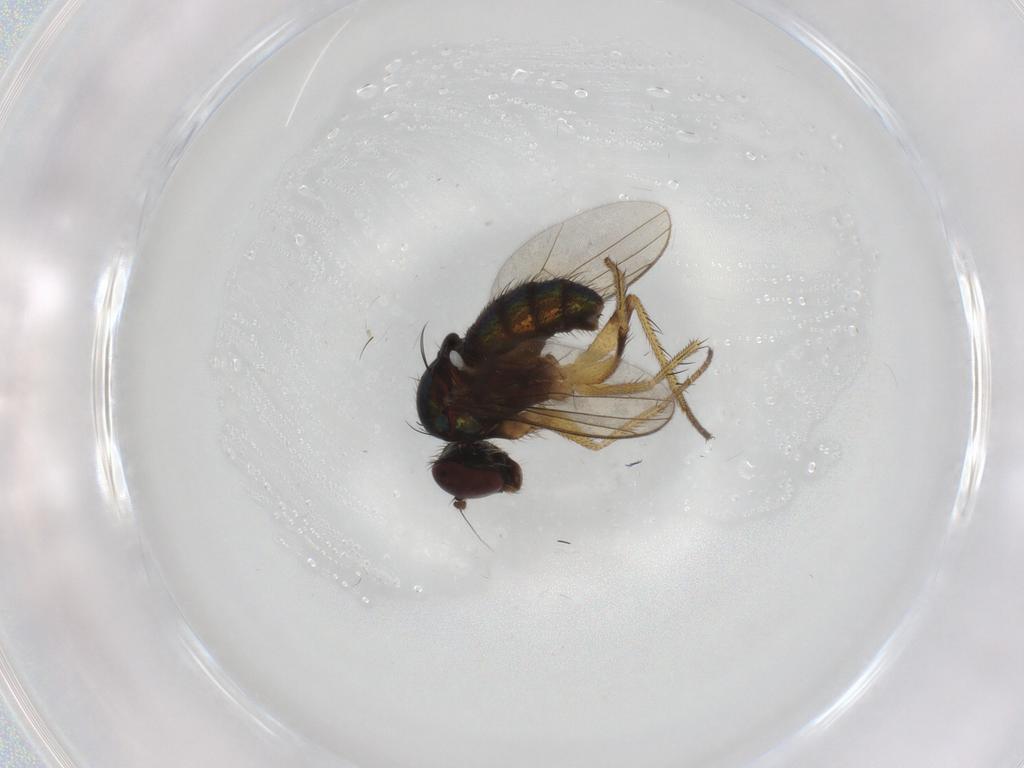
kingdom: Animalia
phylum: Arthropoda
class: Insecta
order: Diptera
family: Dolichopodidae
